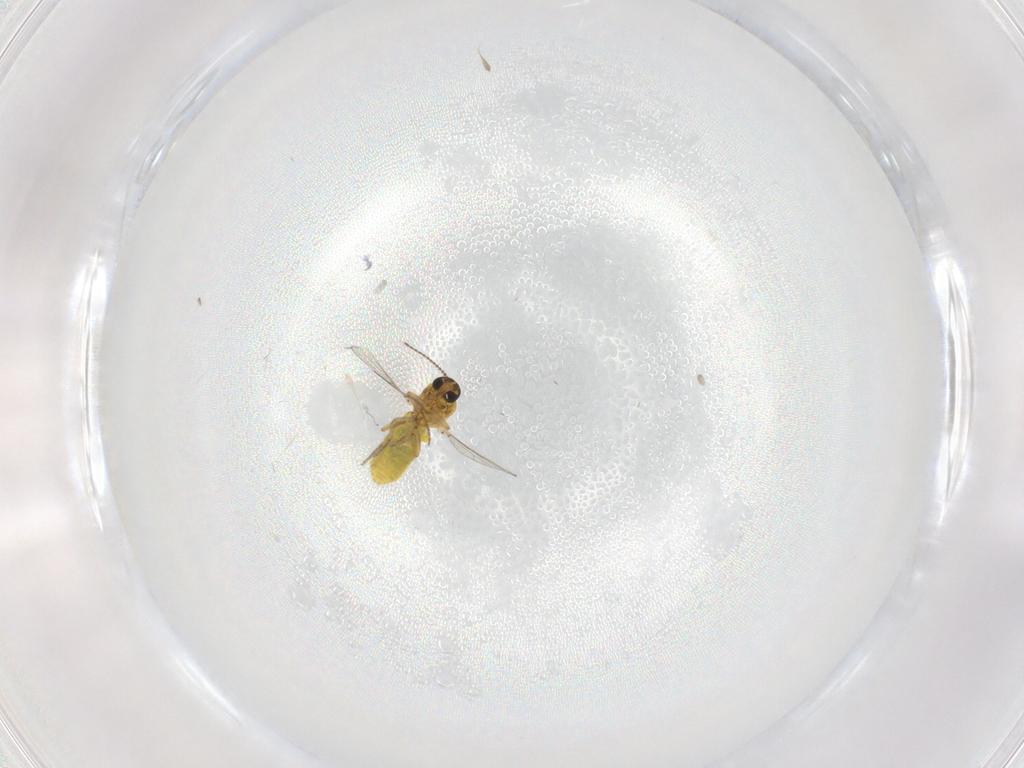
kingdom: Animalia
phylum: Arthropoda
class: Insecta
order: Diptera
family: Ceratopogonidae
